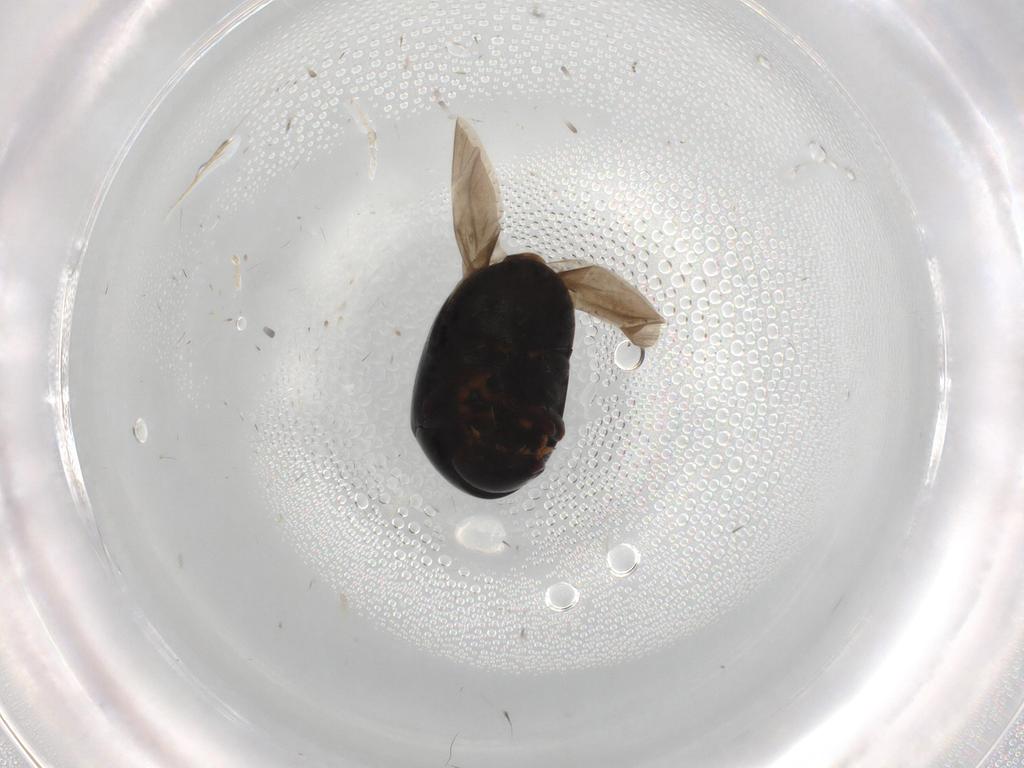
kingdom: Animalia
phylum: Arthropoda
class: Insecta
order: Coleoptera
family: Ptinidae
